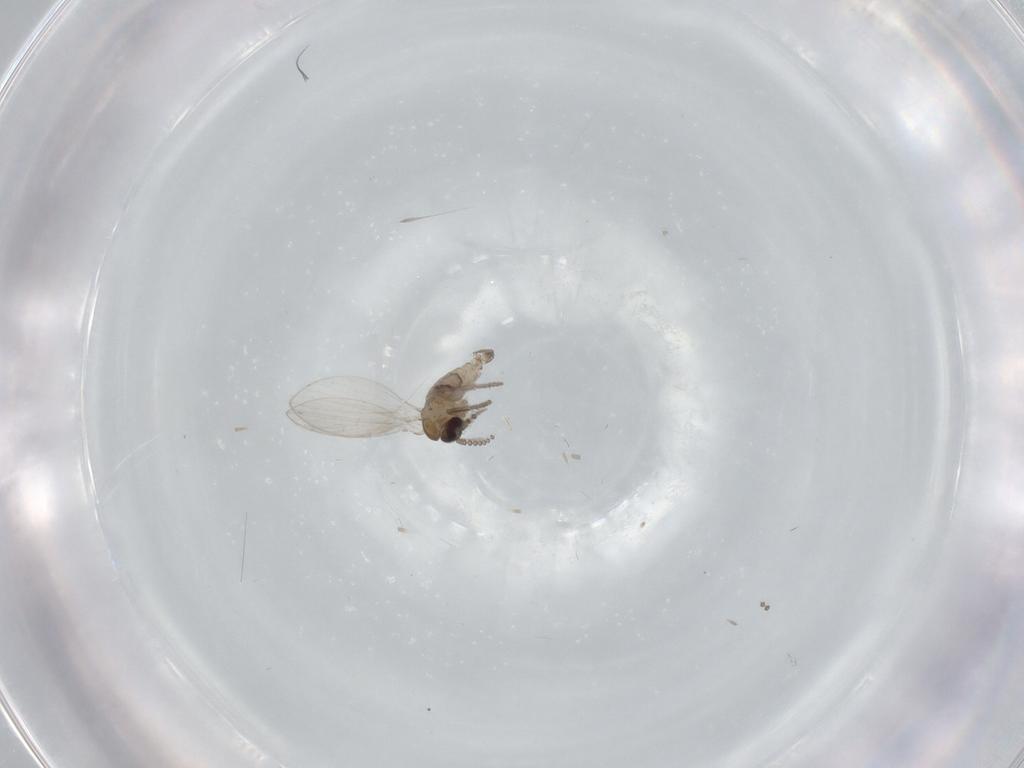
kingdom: Animalia
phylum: Arthropoda
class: Insecta
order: Diptera
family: Psychodidae
